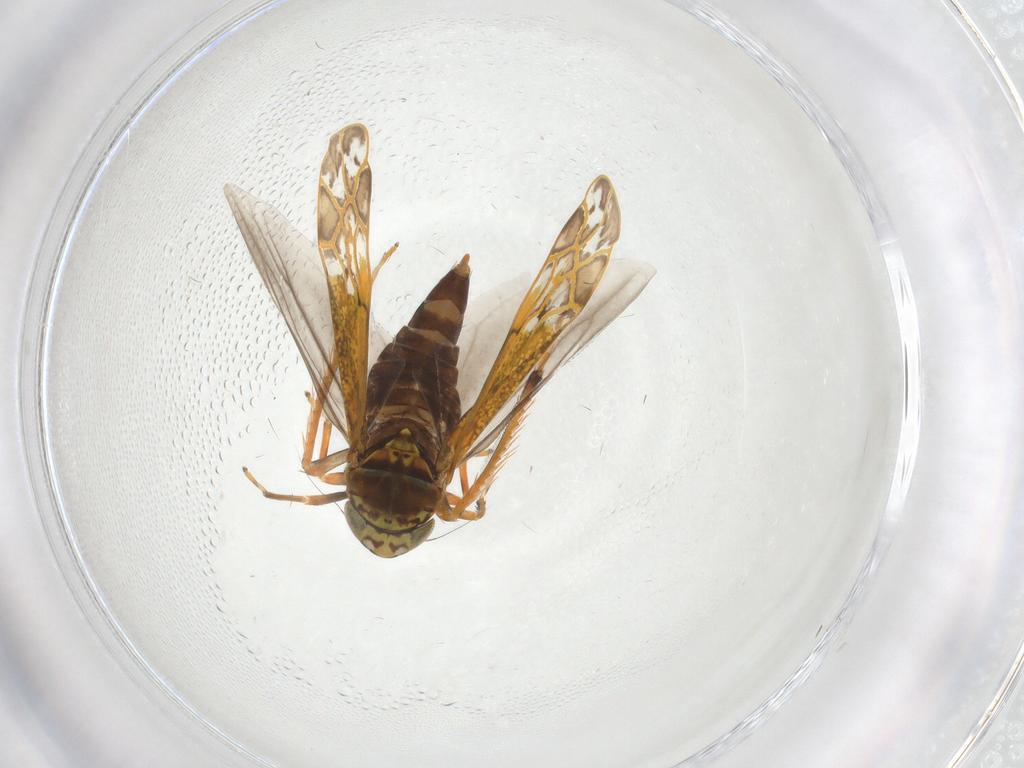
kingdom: Animalia
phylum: Arthropoda
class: Insecta
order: Hemiptera
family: Cicadellidae
